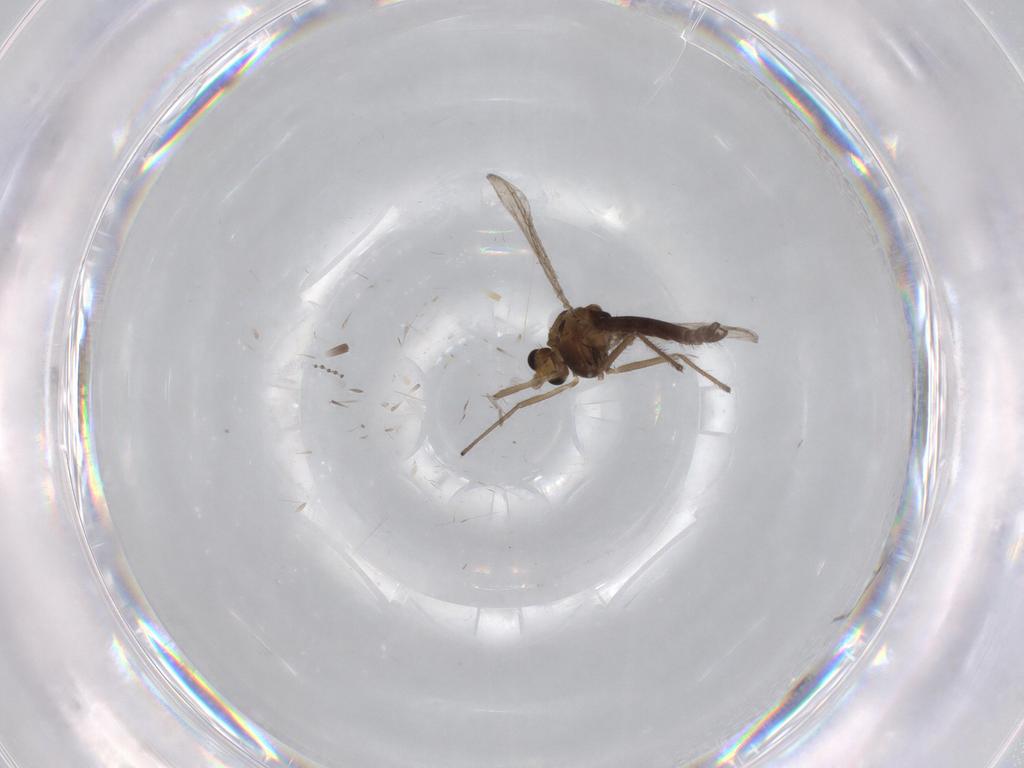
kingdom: Animalia
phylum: Arthropoda
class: Insecta
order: Diptera
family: Chironomidae
